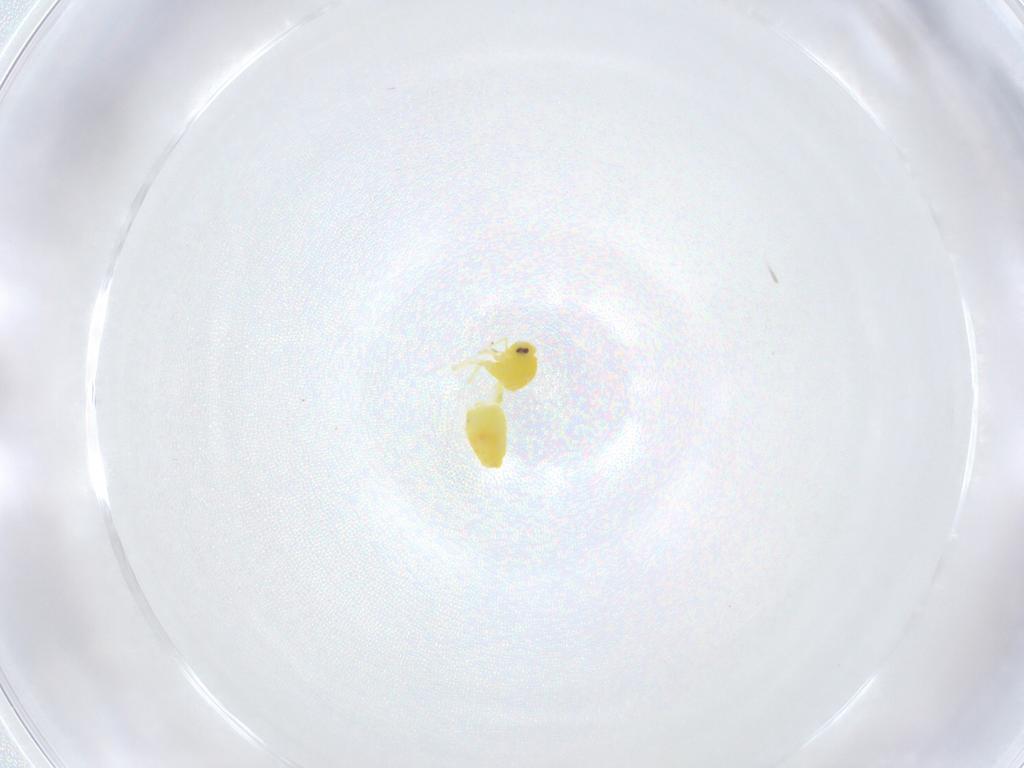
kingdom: Animalia
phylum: Arthropoda
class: Insecta
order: Hemiptera
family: Aleyrodidae
